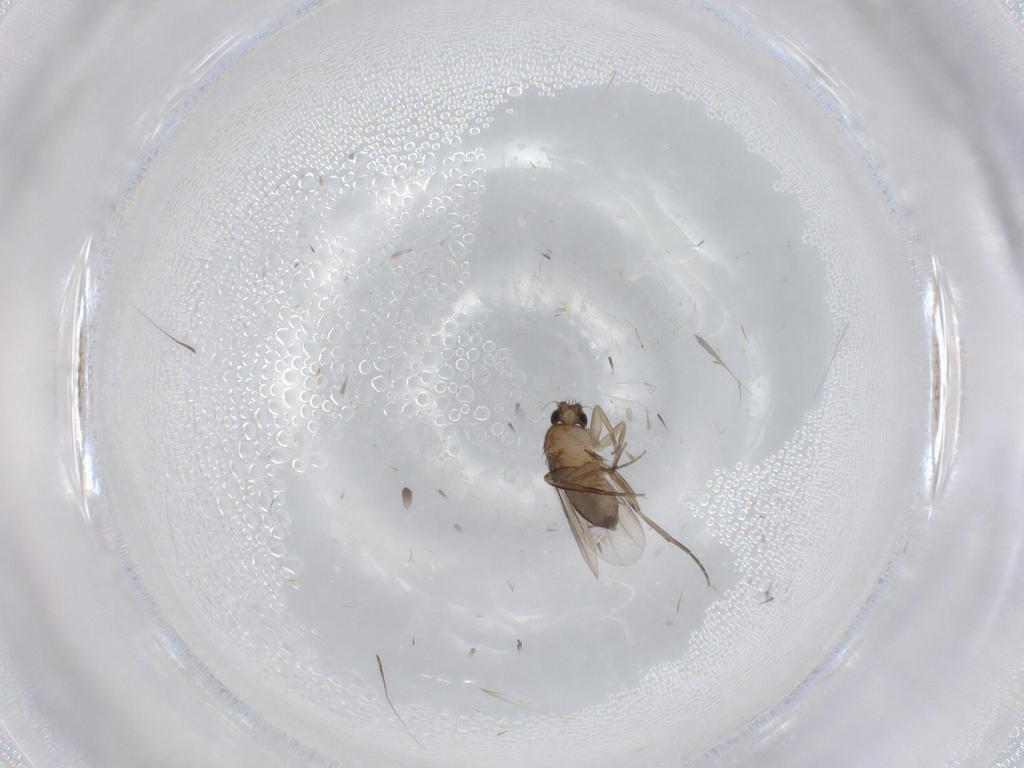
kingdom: Animalia
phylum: Arthropoda
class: Insecta
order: Diptera
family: Phoridae
